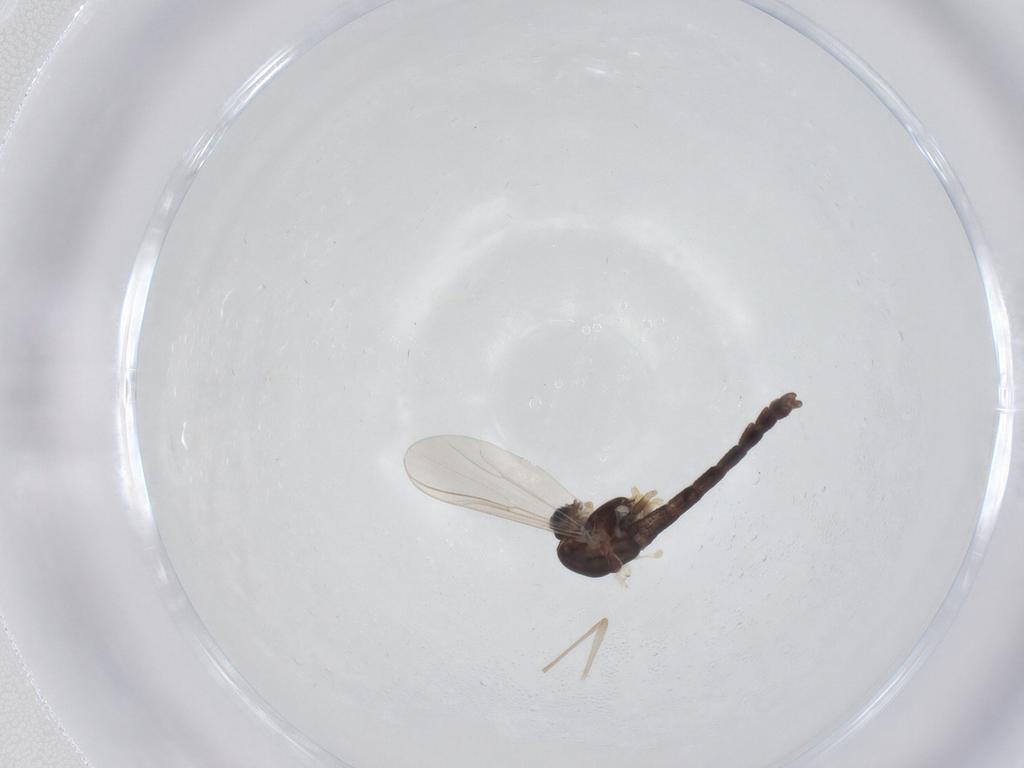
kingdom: Animalia
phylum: Arthropoda
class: Insecta
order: Diptera
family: Chironomidae
